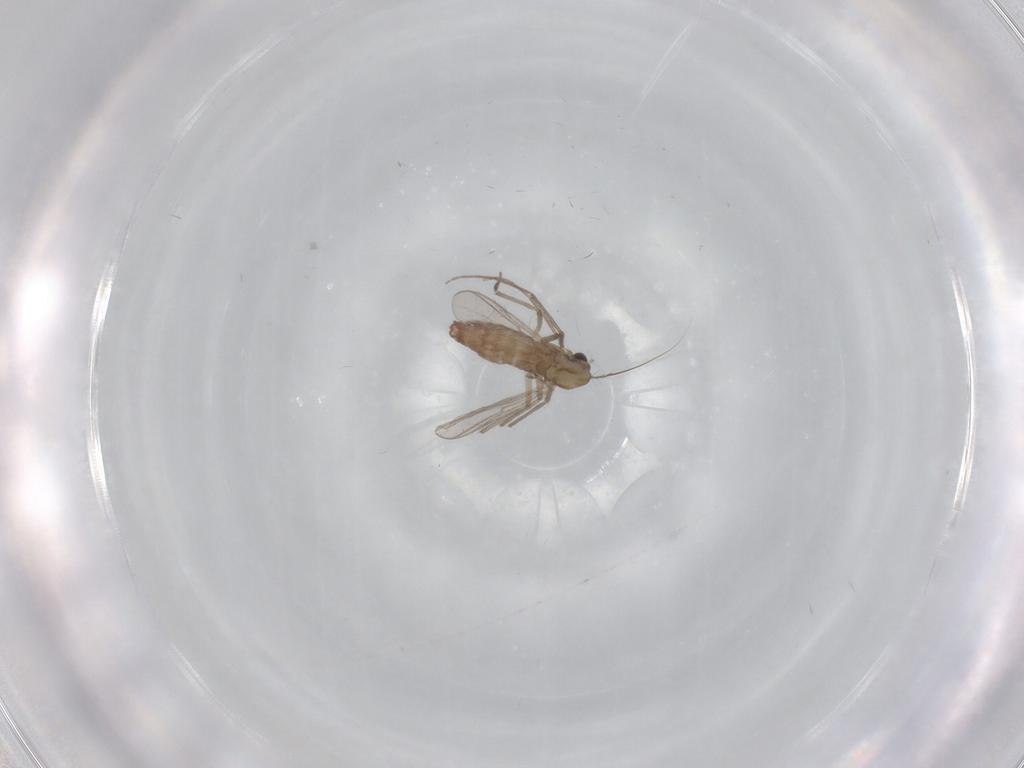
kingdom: Animalia
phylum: Arthropoda
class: Insecta
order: Diptera
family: Chironomidae
